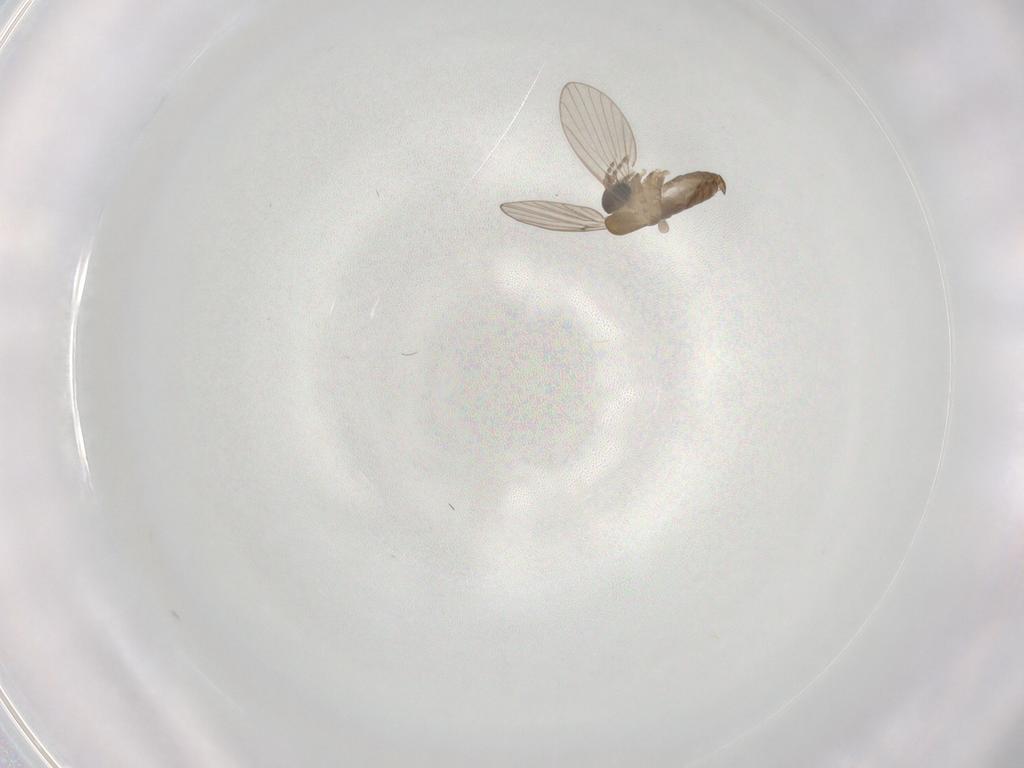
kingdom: Animalia
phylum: Arthropoda
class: Insecta
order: Diptera
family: Psychodidae
